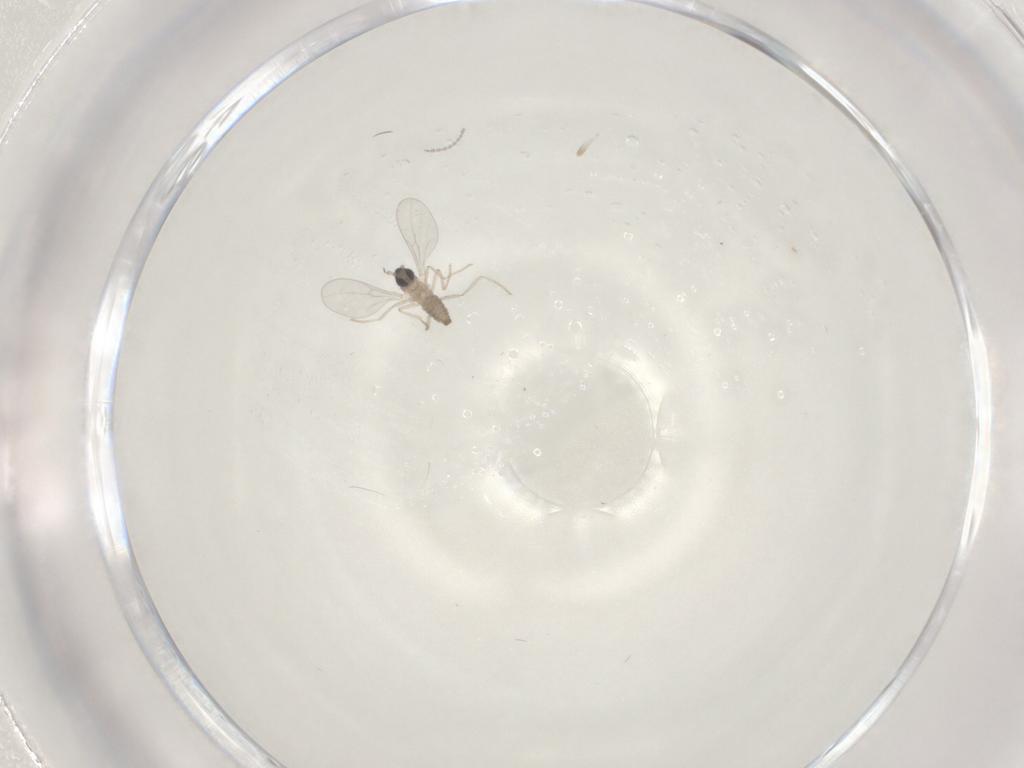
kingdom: Animalia
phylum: Arthropoda
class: Insecta
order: Diptera
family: Cecidomyiidae
